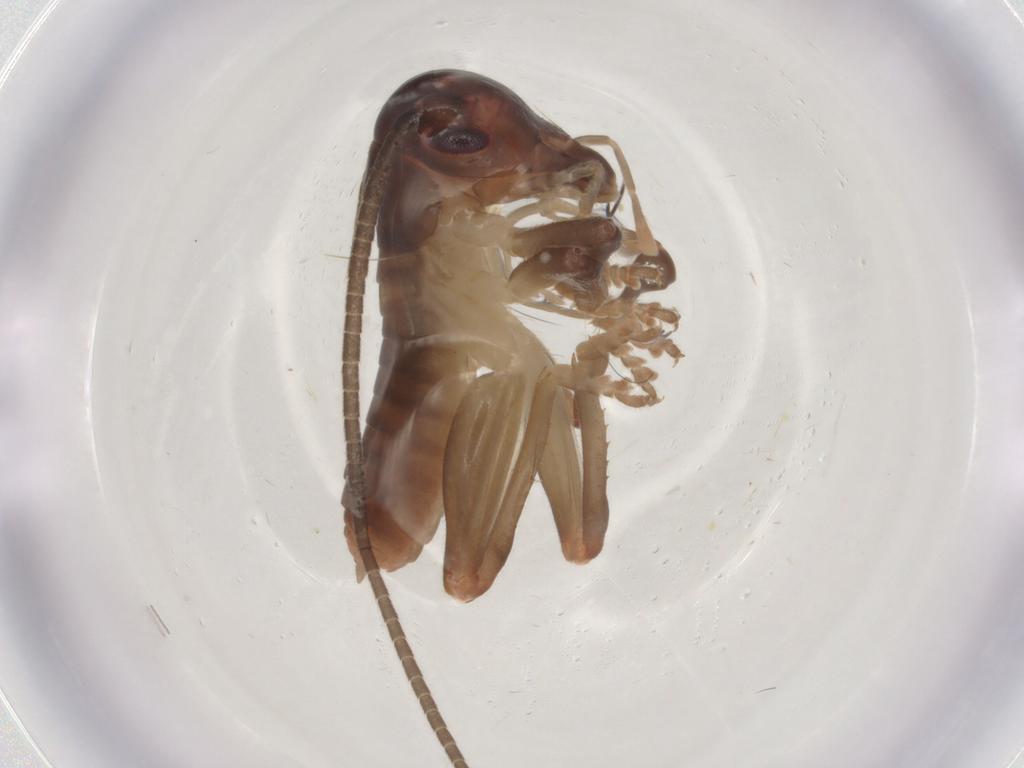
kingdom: Animalia
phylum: Arthropoda
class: Insecta
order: Orthoptera
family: Gryllacrididae
